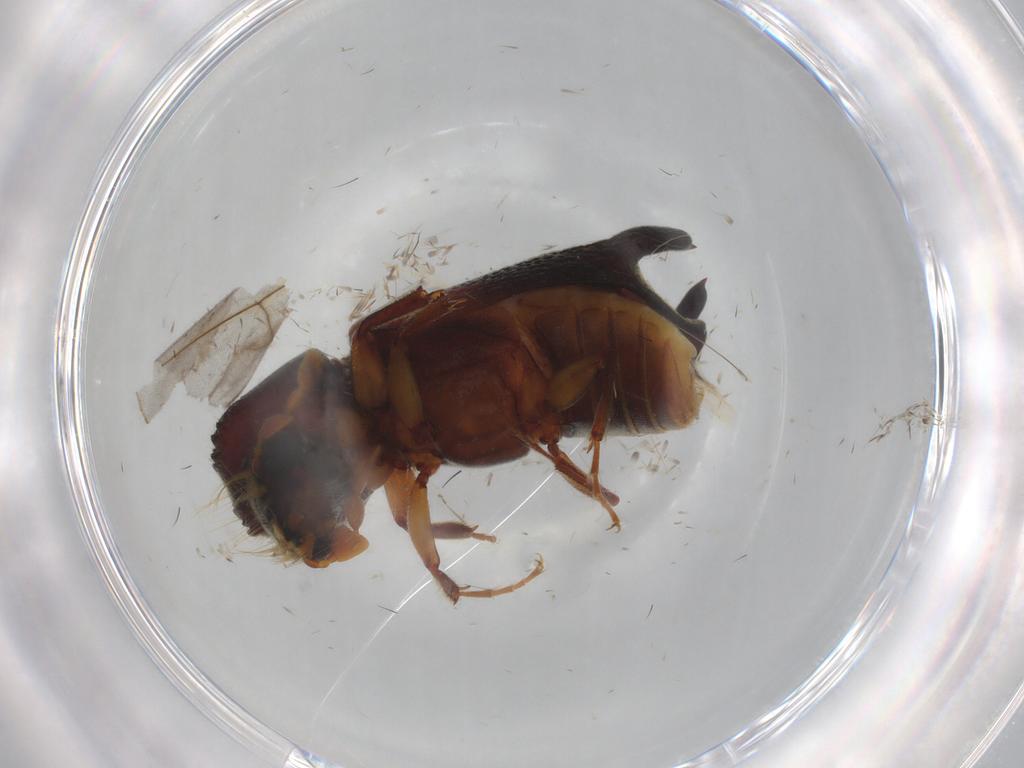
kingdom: Animalia
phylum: Arthropoda
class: Insecta
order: Coleoptera
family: Bostrichidae
